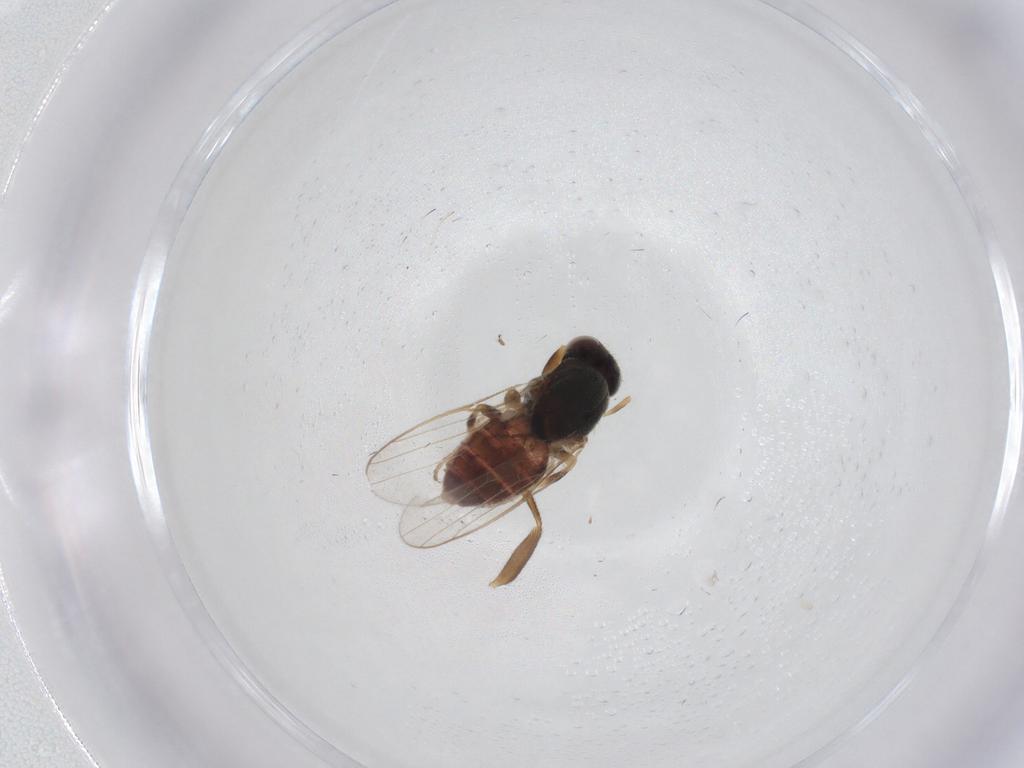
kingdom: Animalia
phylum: Arthropoda
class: Insecta
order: Diptera
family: Chloropidae
